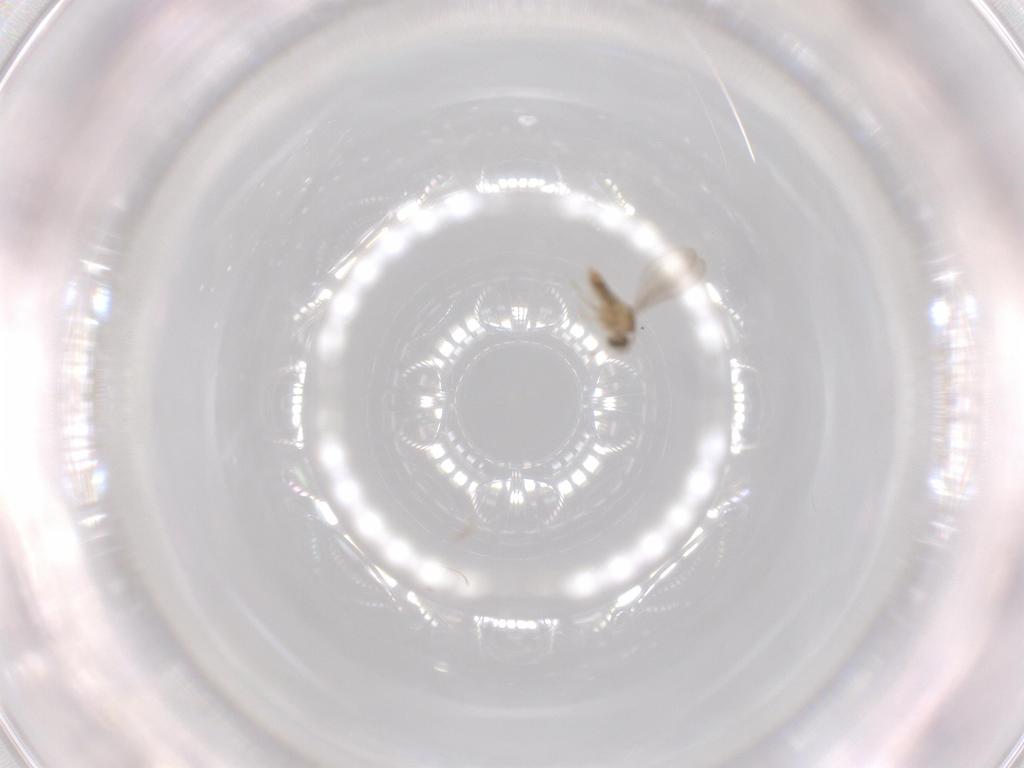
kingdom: Animalia
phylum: Arthropoda
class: Insecta
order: Diptera
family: Cecidomyiidae
